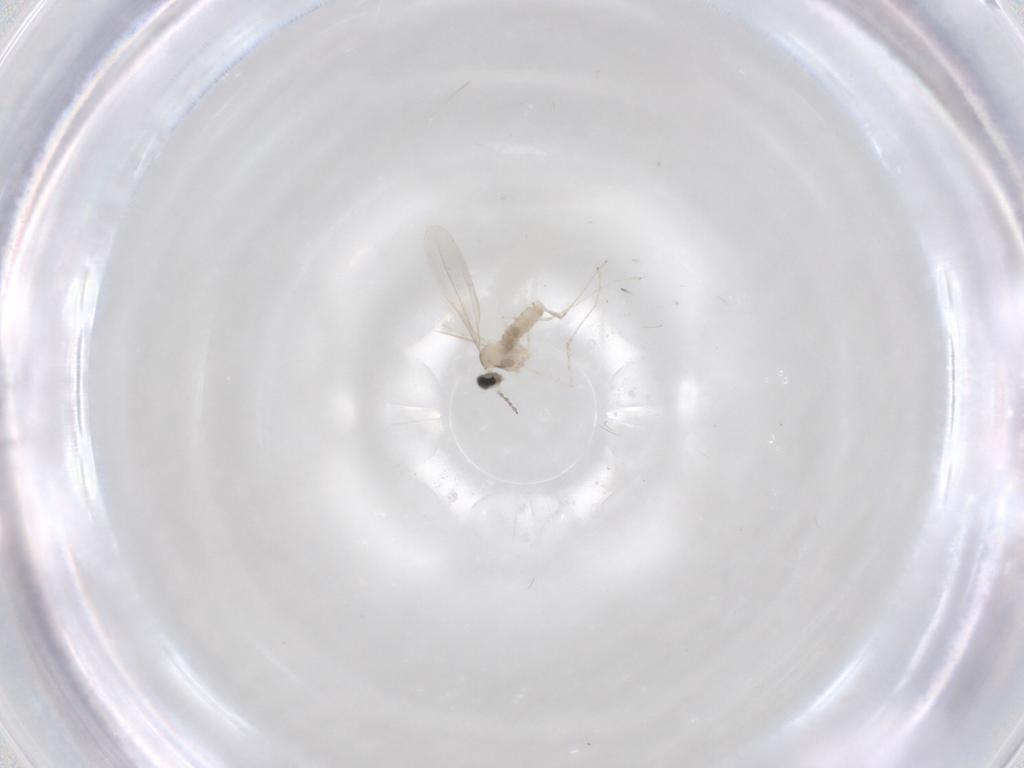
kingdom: Animalia
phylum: Arthropoda
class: Insecta
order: Diptera
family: Cecidomyiidae
